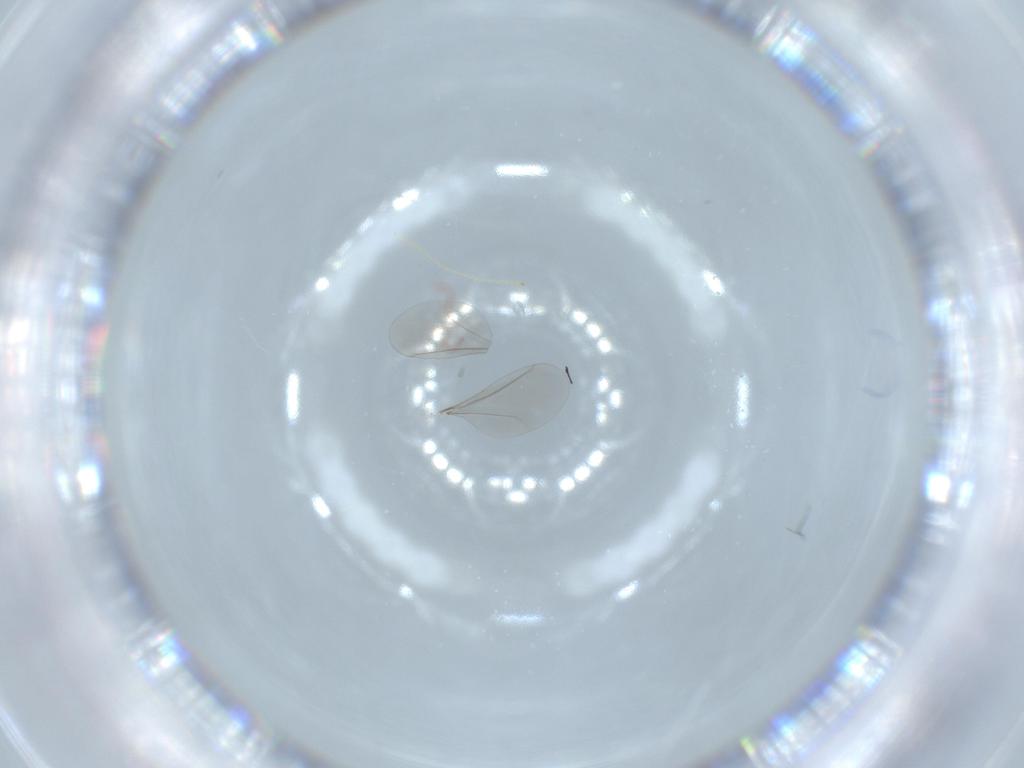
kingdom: Animalia
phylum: Arthropoda
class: Insecta
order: Diptera
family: Chironomidae
